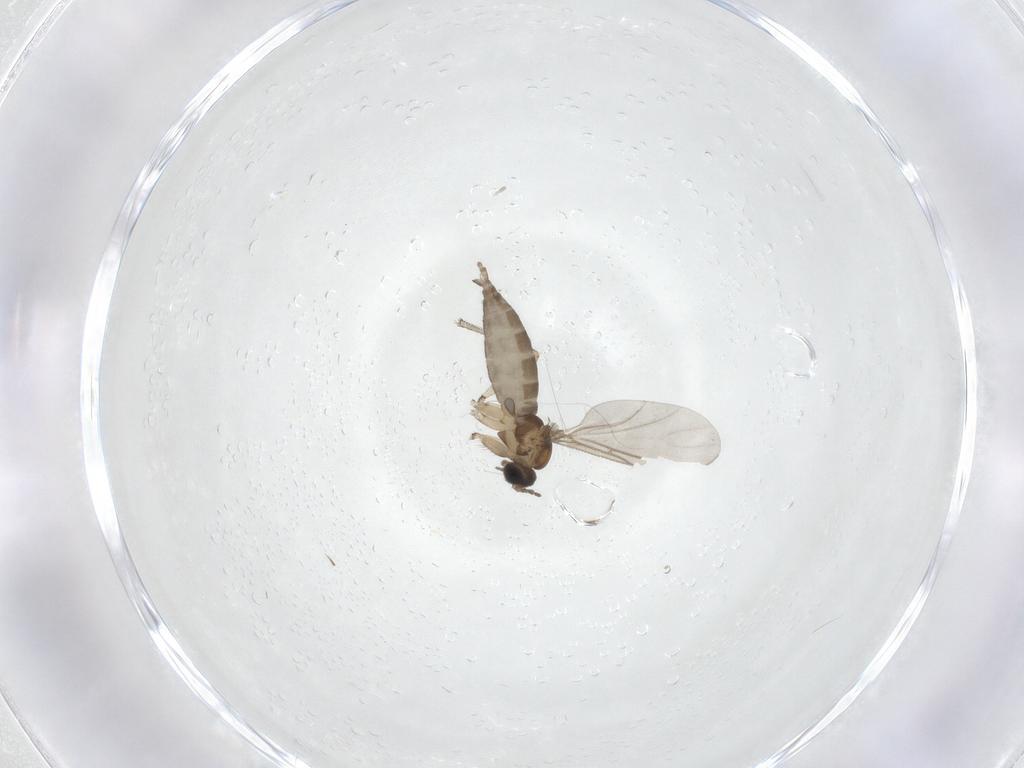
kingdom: Animalia
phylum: Arthropoda
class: Insecta
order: Diptera
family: Sciaridae
